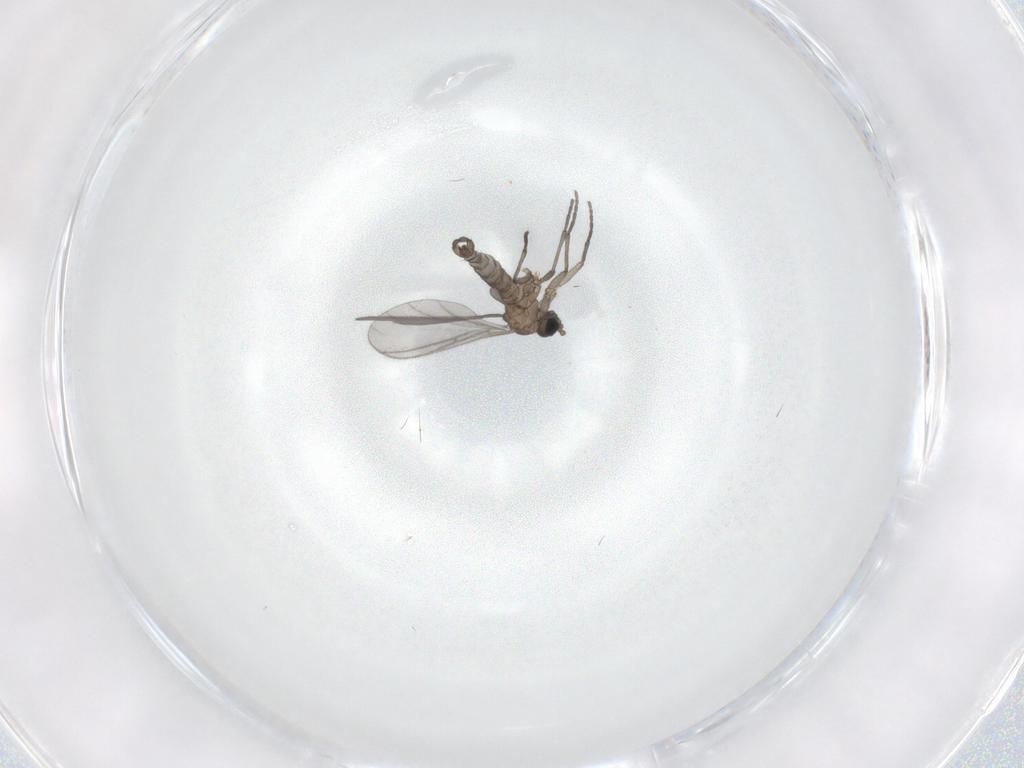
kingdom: Animalia
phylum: Arthropoda
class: Insecta
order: Diptera
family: Sciaridae
